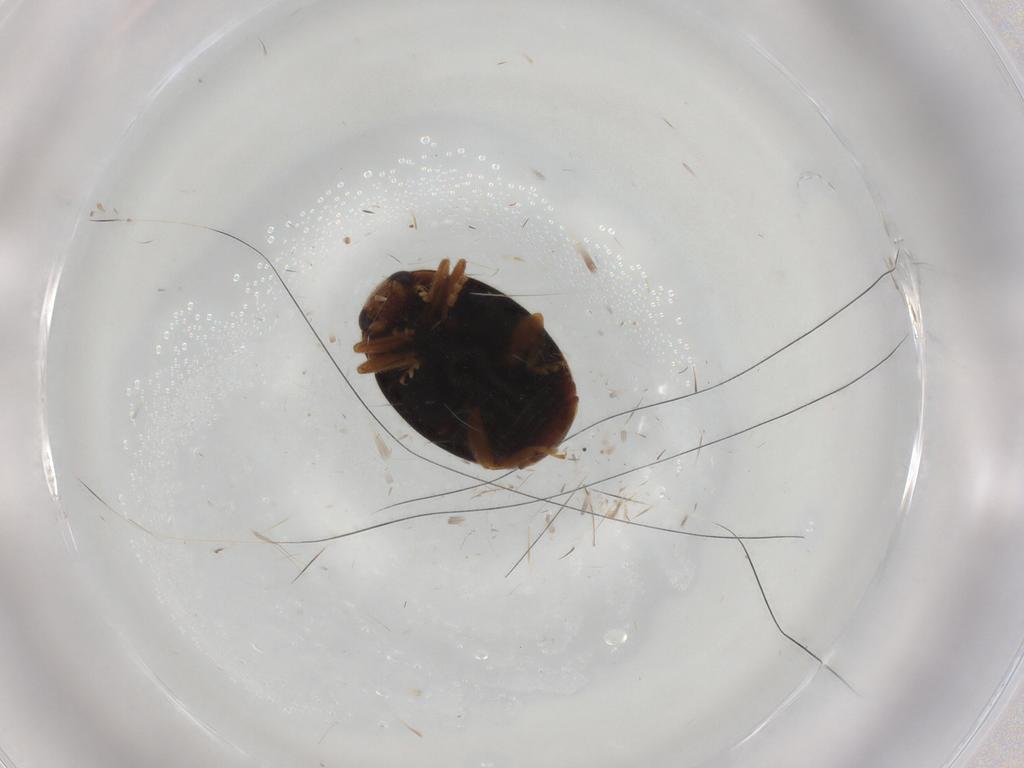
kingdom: Animalia
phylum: Arthropoda
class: Insecta
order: Coleoptera
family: Coccinellidae
